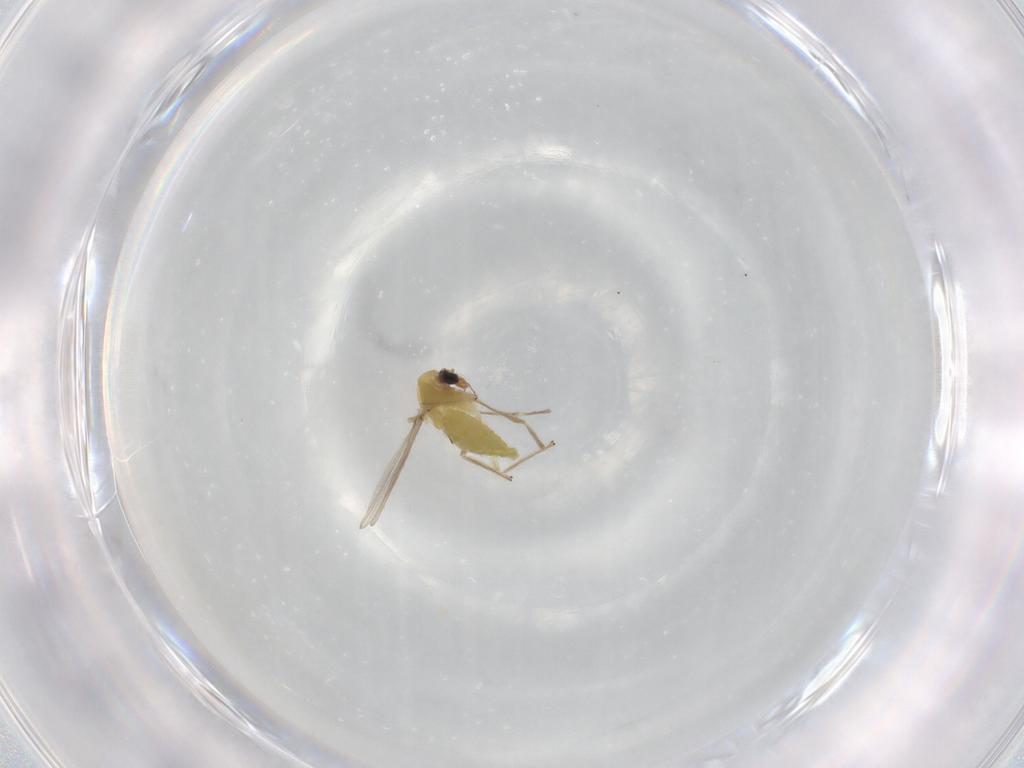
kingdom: Animalia
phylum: Arthropoda
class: Insecta
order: Diptera
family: Chironomidae
